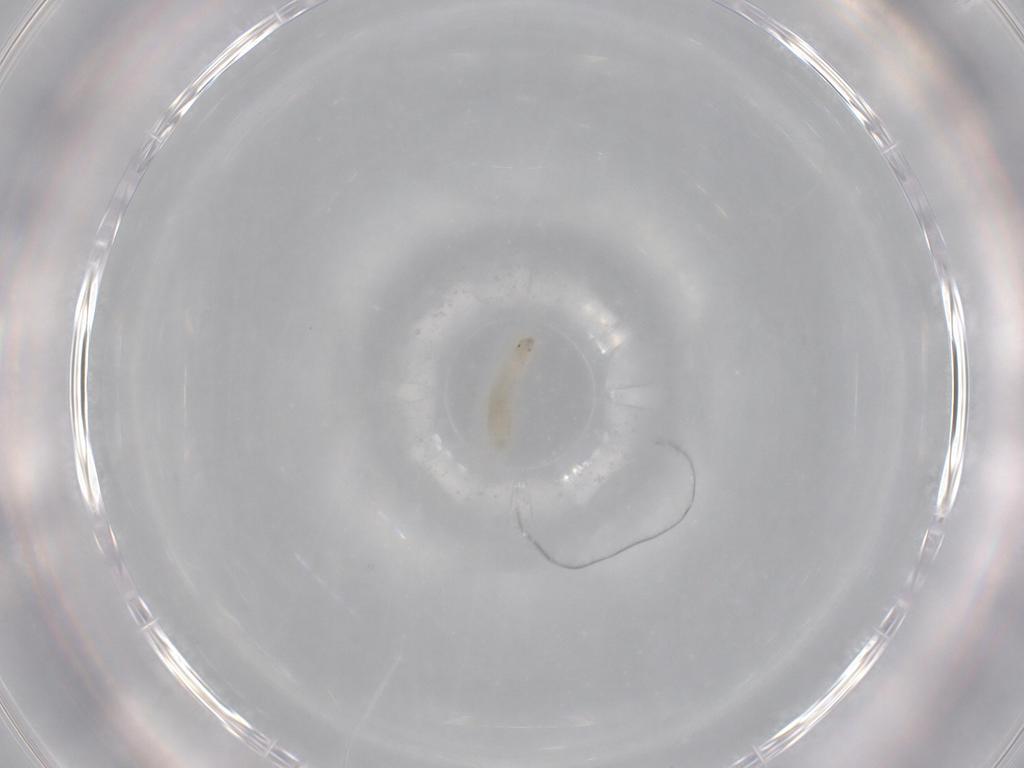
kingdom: Animalia
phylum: Arthropoda
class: Insecta
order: Diptera
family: Cecidomyiidae
